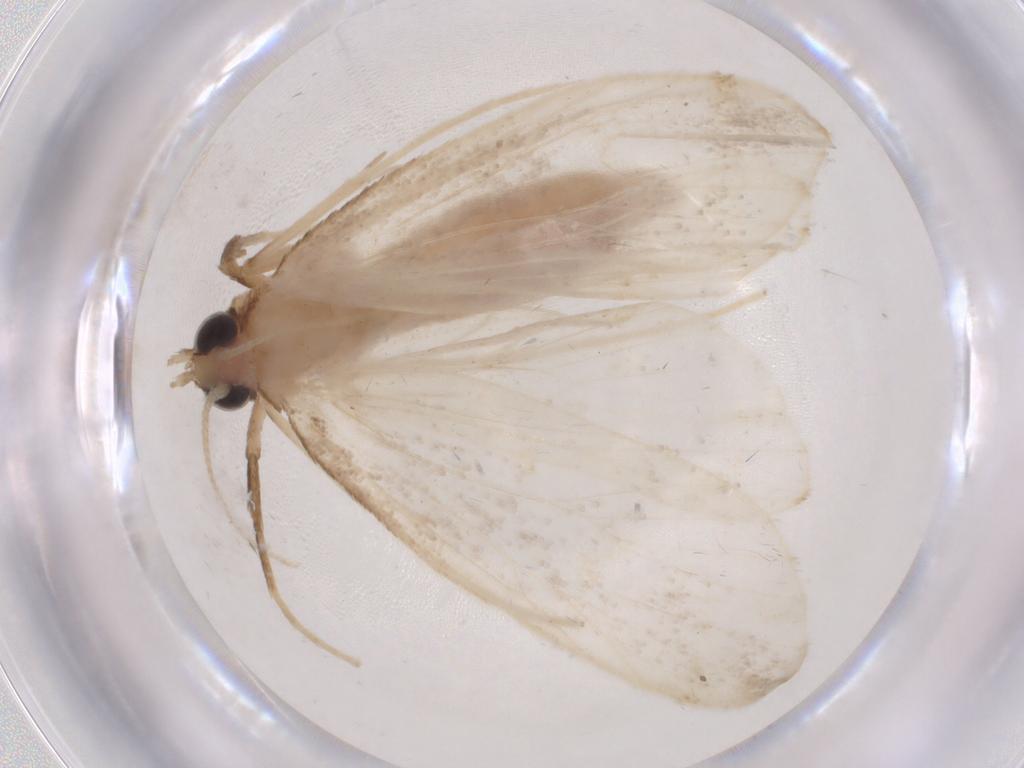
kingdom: Animalia
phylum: Arthropoda
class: Insecta
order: Lepidoptera
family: Crambidae
